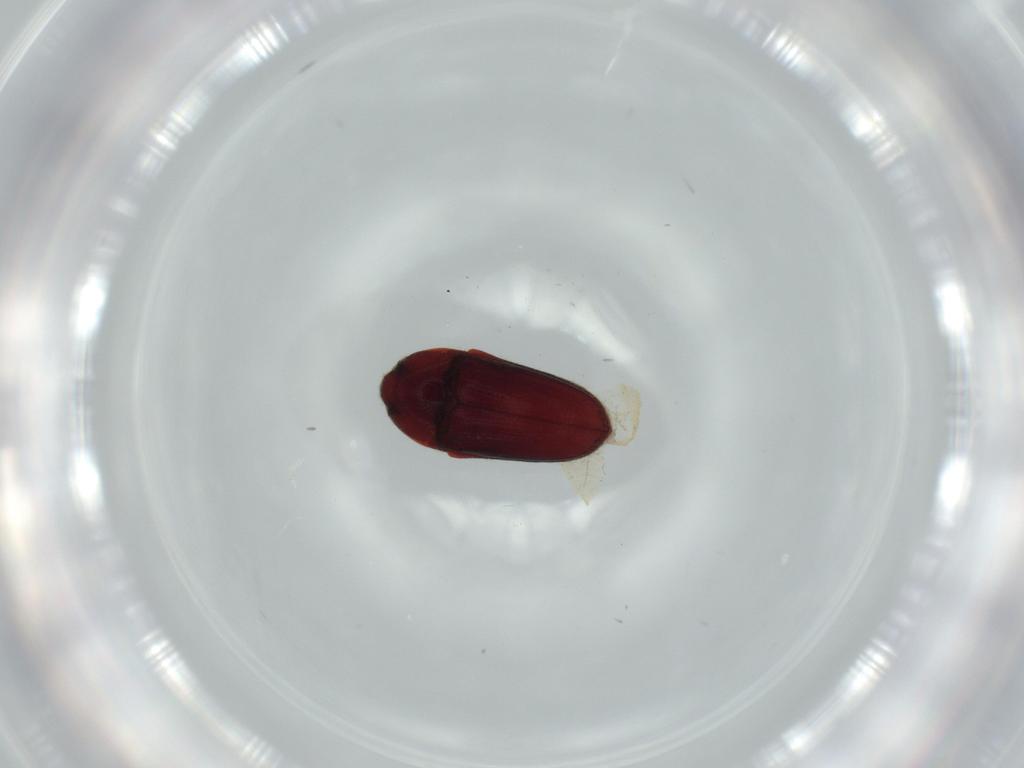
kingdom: Animalia
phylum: Arthropoda
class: Insecta
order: Coleoptera
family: Throscidae
